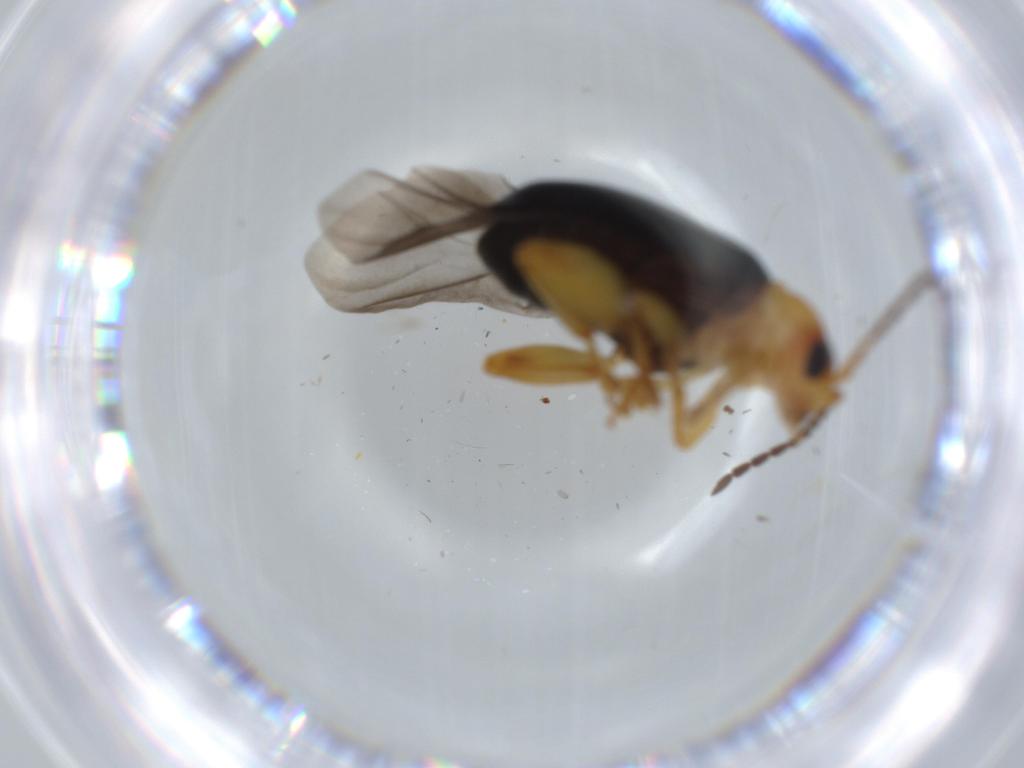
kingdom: Animalia
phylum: Arthropoda
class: Insecta
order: Coleoptera
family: Chrysomelidae
